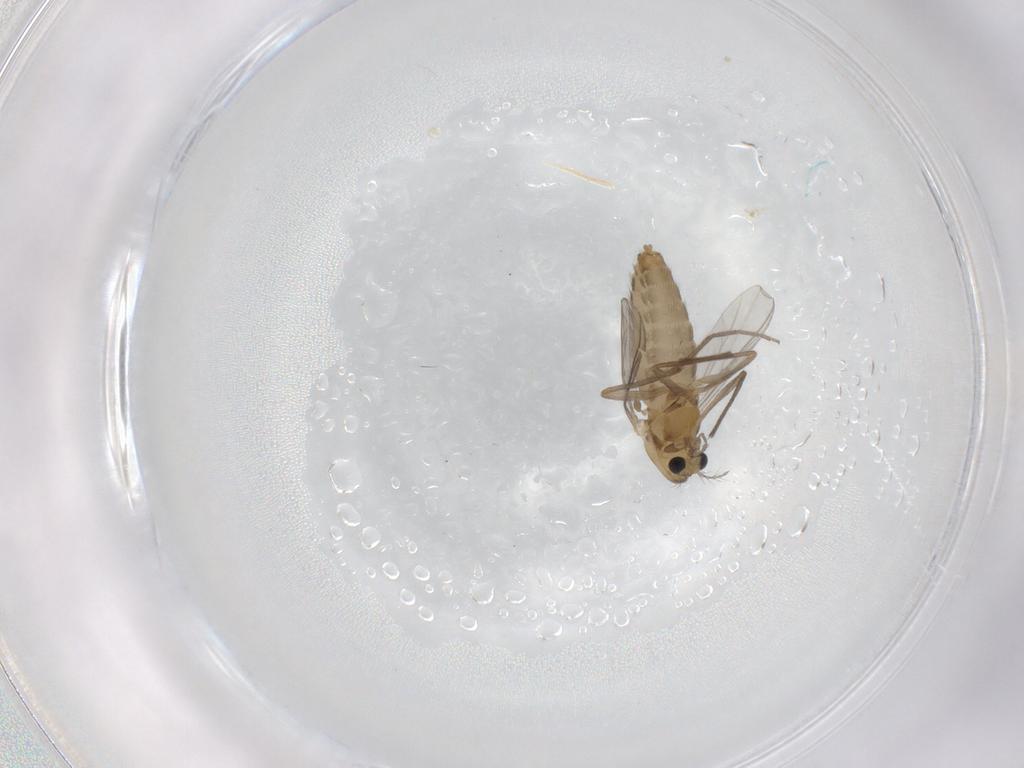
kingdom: Animalia
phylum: Arthropoda
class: Insecta
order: Diptera
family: Chironomidae
